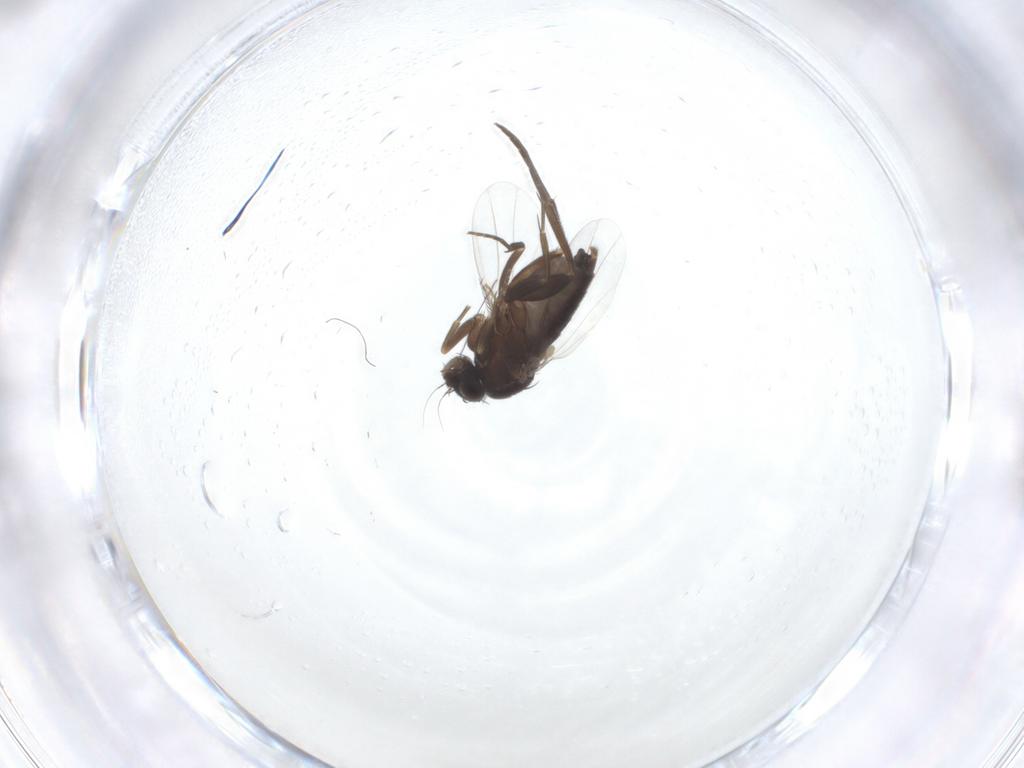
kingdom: Animalia
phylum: Arthropoda
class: Insecta
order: Diptera
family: Phoridae
